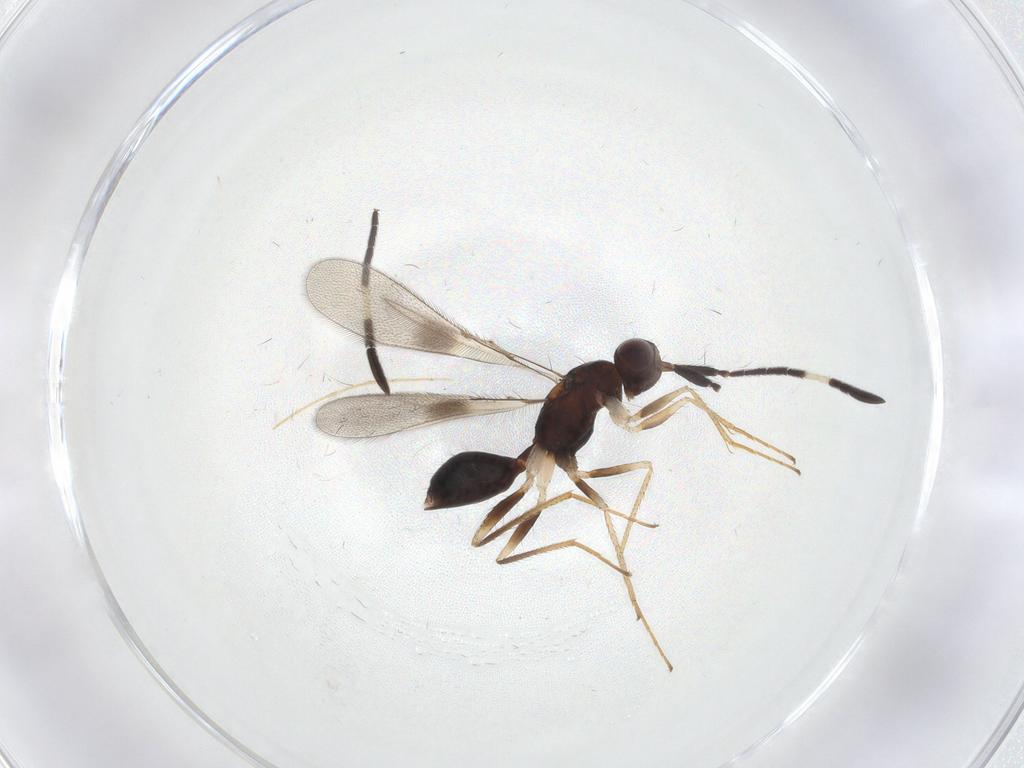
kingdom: Animalia
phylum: Arthropoda
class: Insecta
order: Hymenoptera
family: Mymaridae
